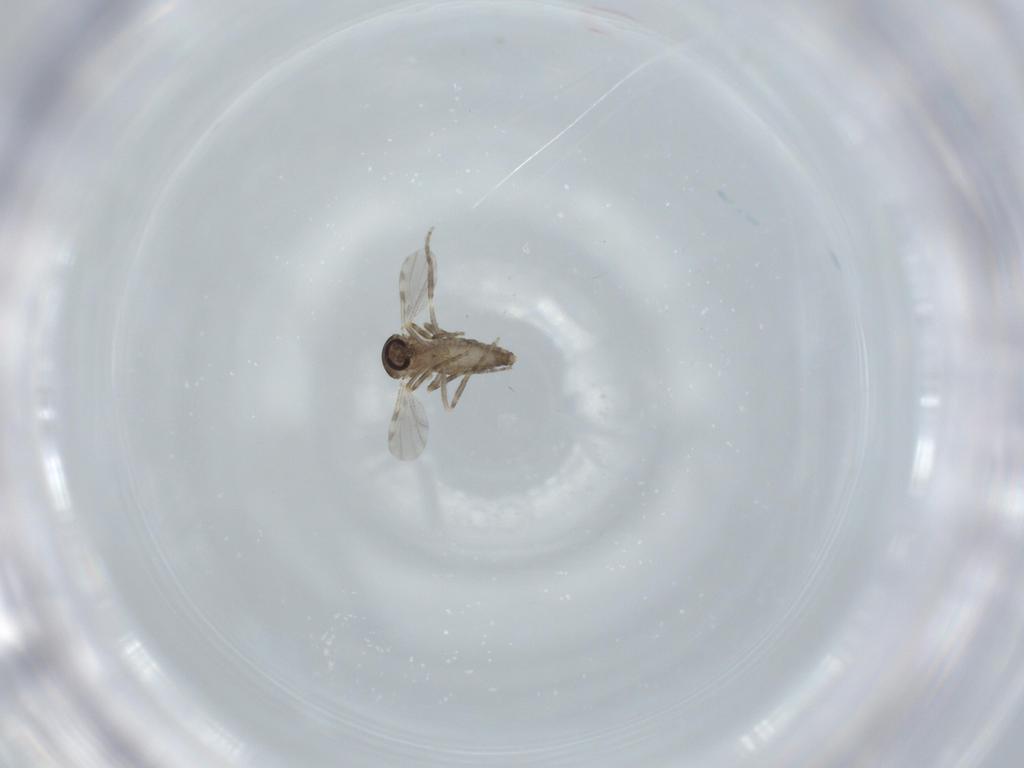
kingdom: Animalia
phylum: Arthropoda
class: Insecta
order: Diptera
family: Ceratopogonidae
